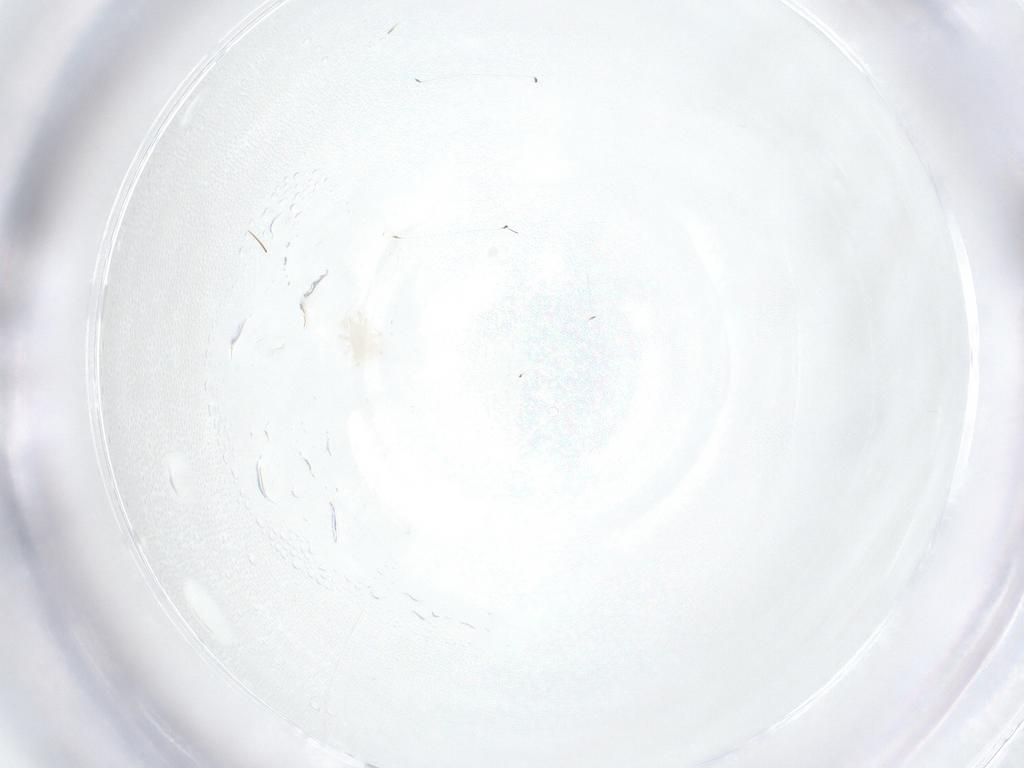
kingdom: Animalia
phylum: Arthropoda
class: Arachnida
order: Mesostigmata
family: Melicharidae
